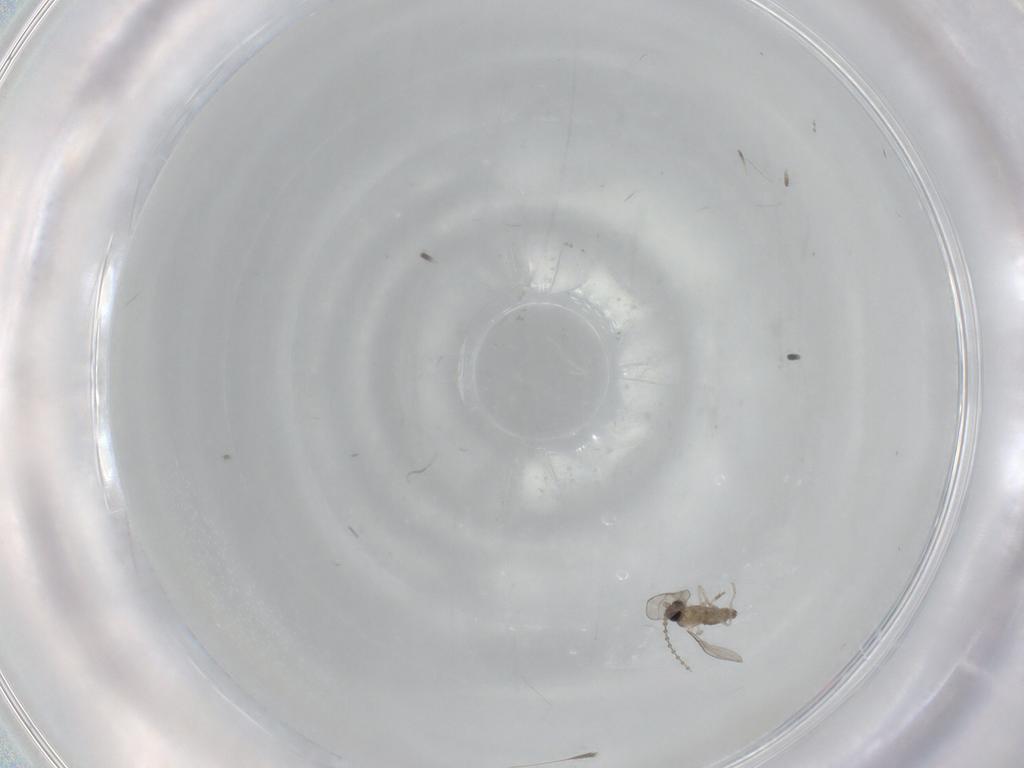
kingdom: Animalia
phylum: Arthropoda
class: Insecta
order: Diptera
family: Cecidomyiidae
